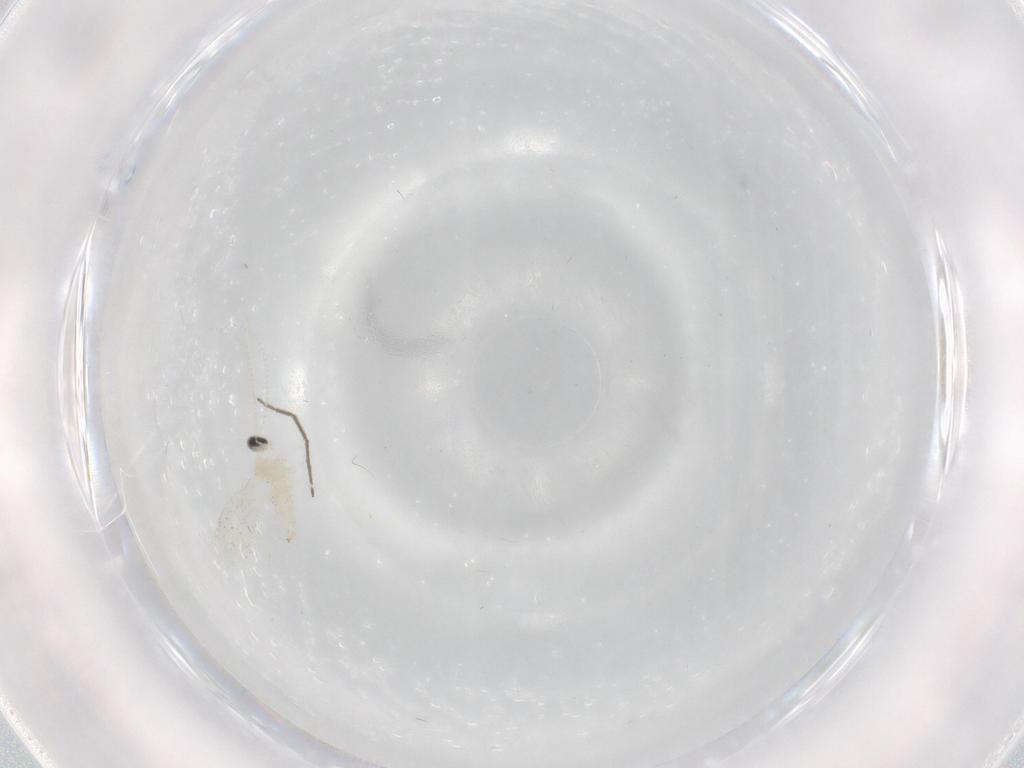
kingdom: Animalia
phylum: Arthropoda
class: Insecta
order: Diptera
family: Cecidomyiidae
